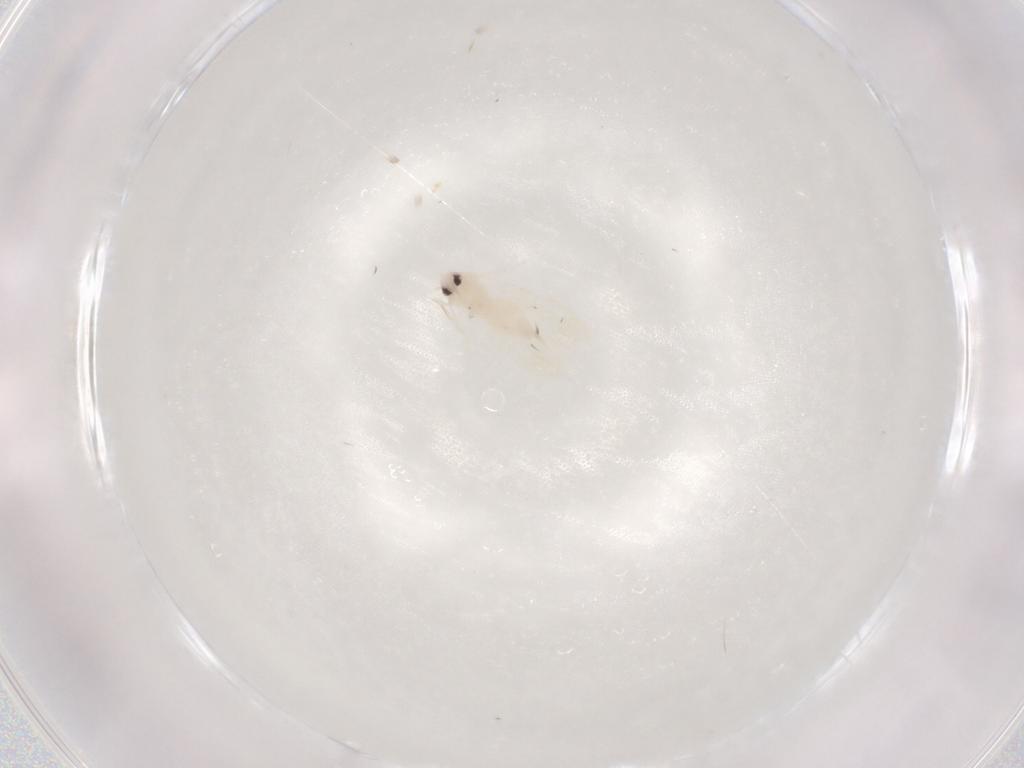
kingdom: Animalia
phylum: Arthropoda
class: Insecta
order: Hemiptera
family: Aleyrodidae
